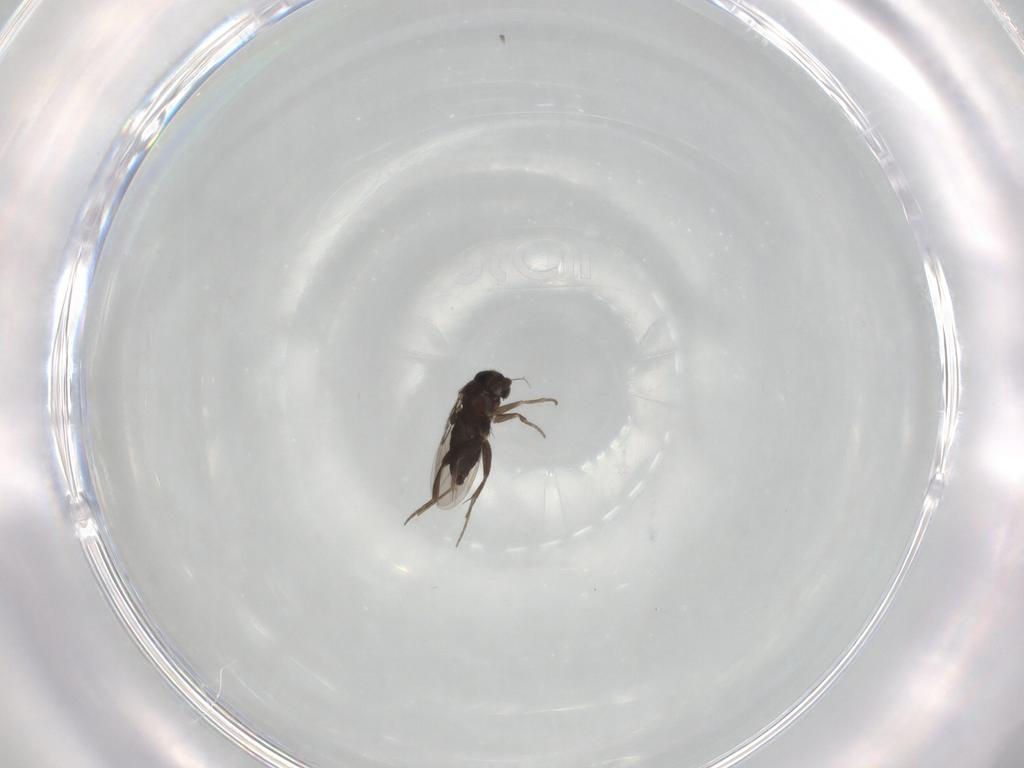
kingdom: Animalia
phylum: Arthropoda
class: Insecta
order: Diptera
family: Phoridae
